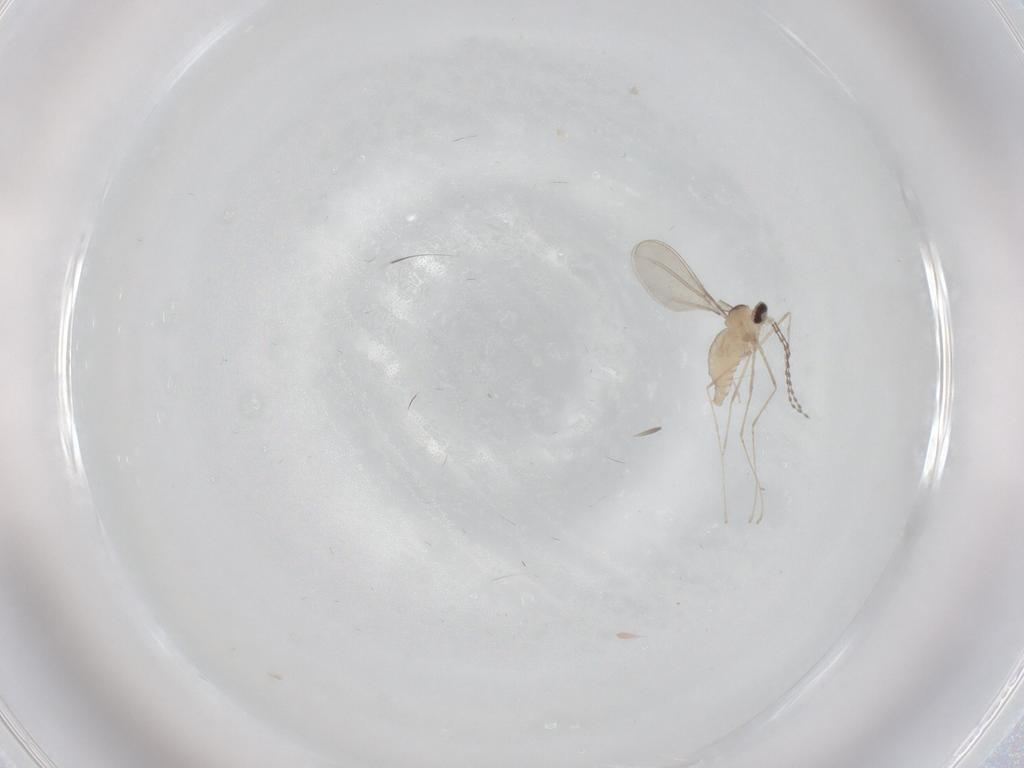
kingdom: Animalia
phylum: Arthropoda
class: Insecta
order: Diptera
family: Cecidomyiidae
